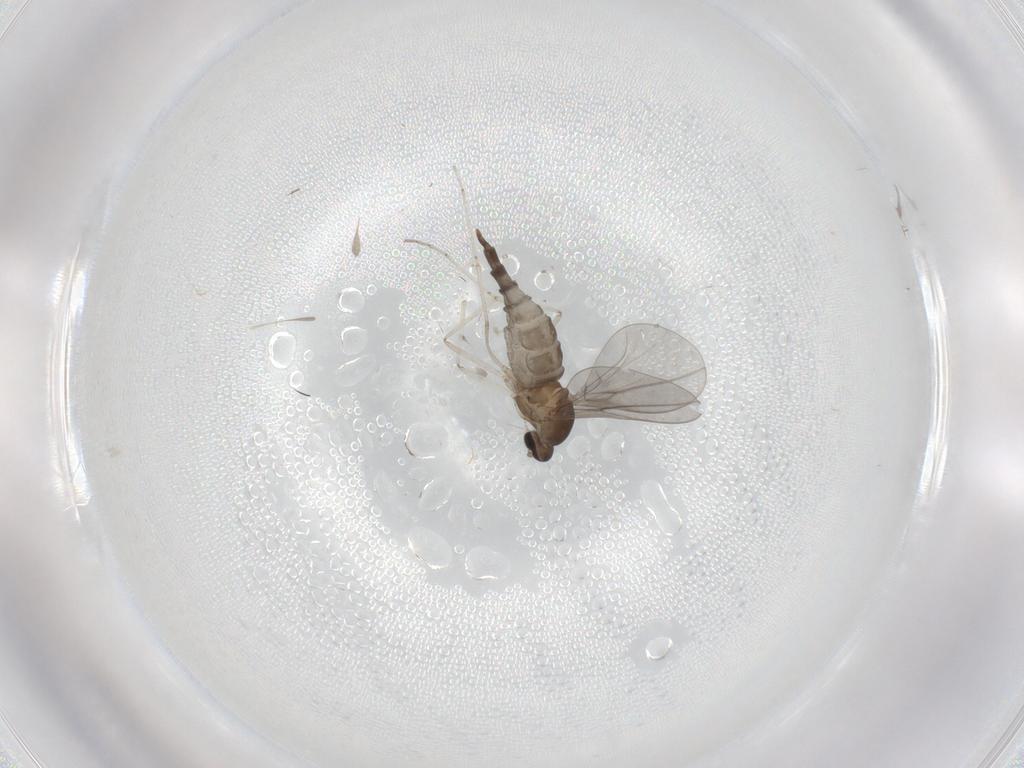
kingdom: Animalia
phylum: Arthropoda
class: Insecta
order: Diptera
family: Cecidomyiidae
